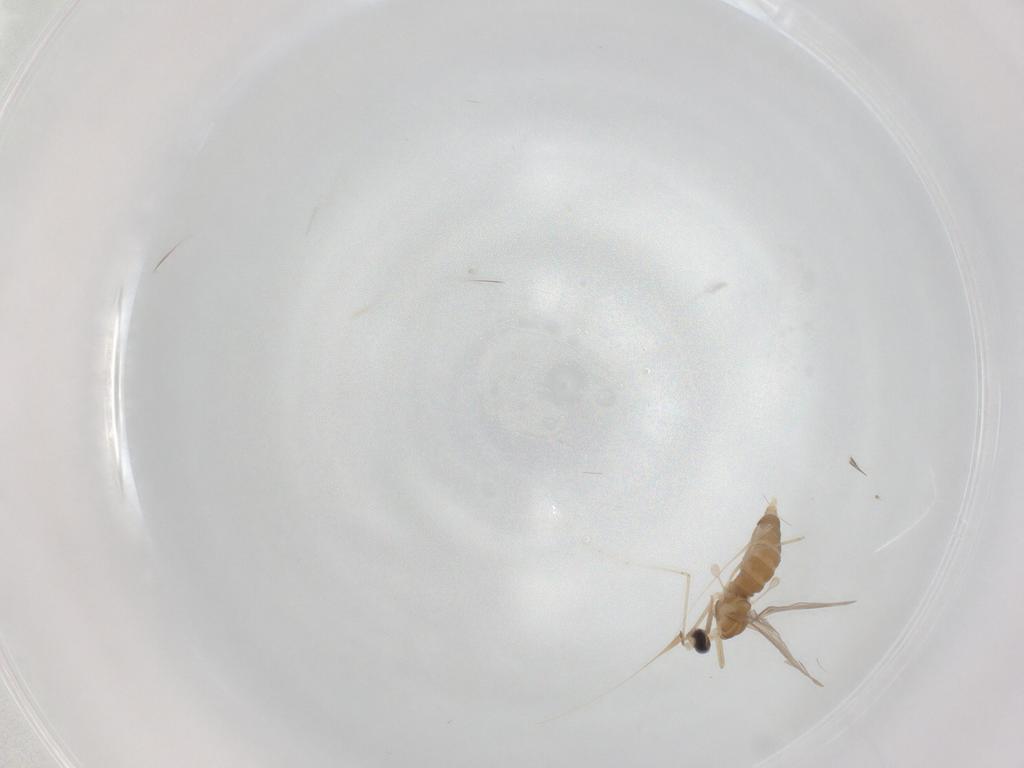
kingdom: Animalia
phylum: Arthropoda
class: Insecta
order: Diptera
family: Cecidomyiidae
